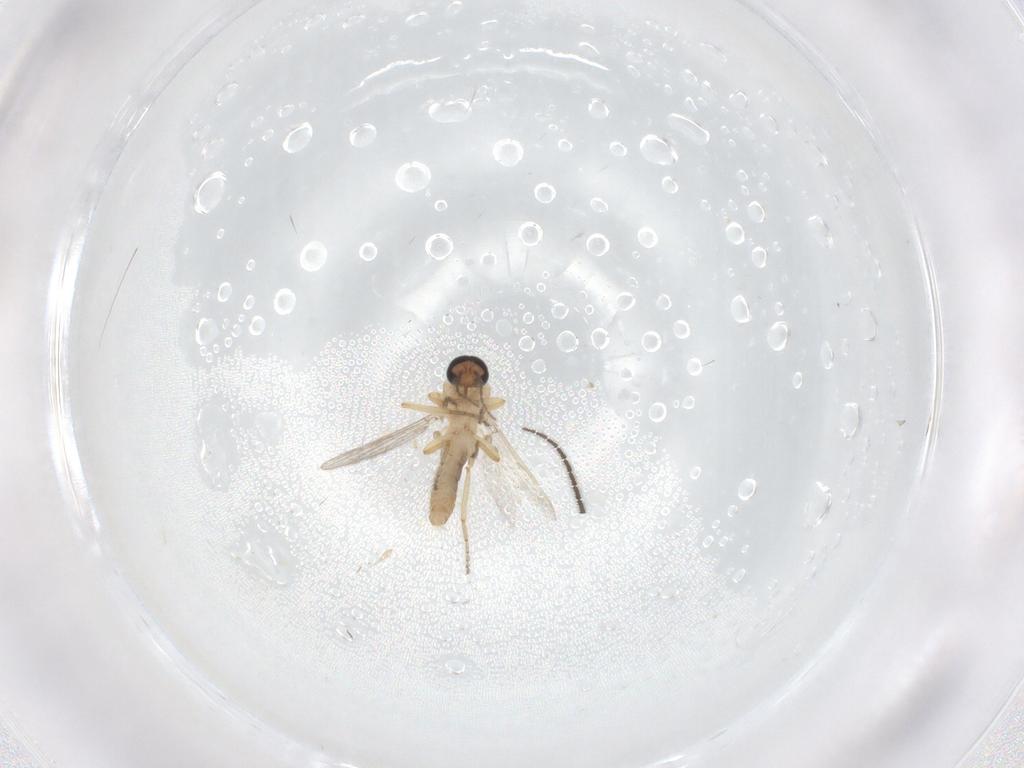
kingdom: Animalia
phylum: Arthropoda
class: Insecta
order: Diptera
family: Ceratopogonidae
